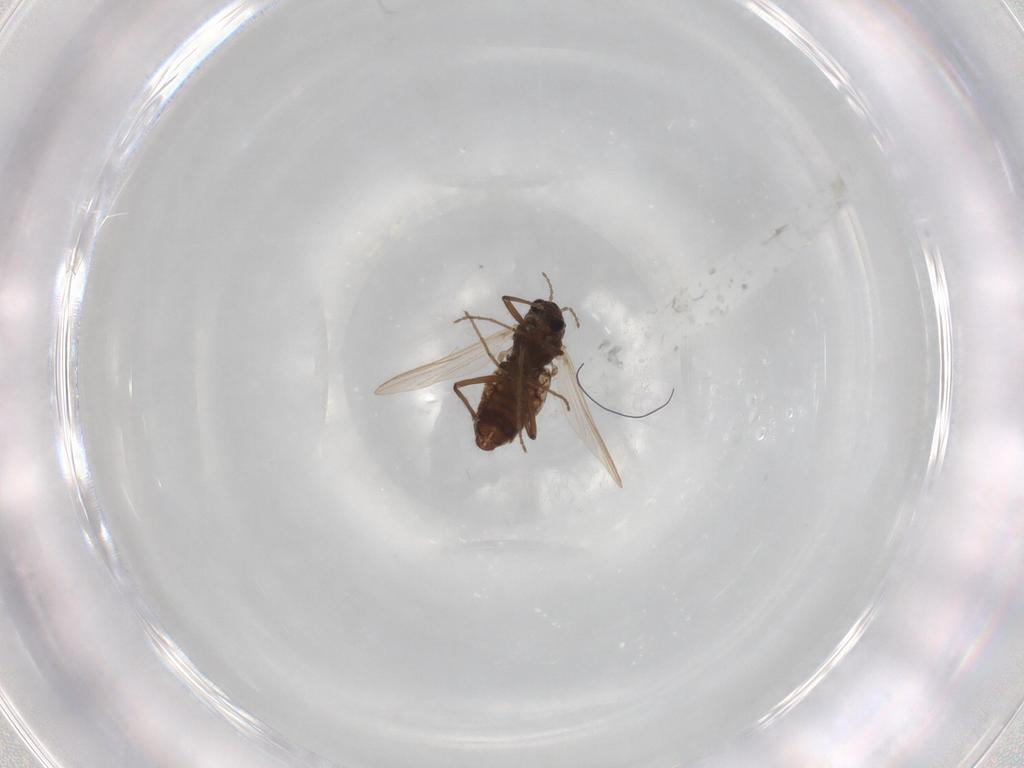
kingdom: Animalia
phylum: Arthropoda
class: Insecta
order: Diptera
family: Chironomidae
